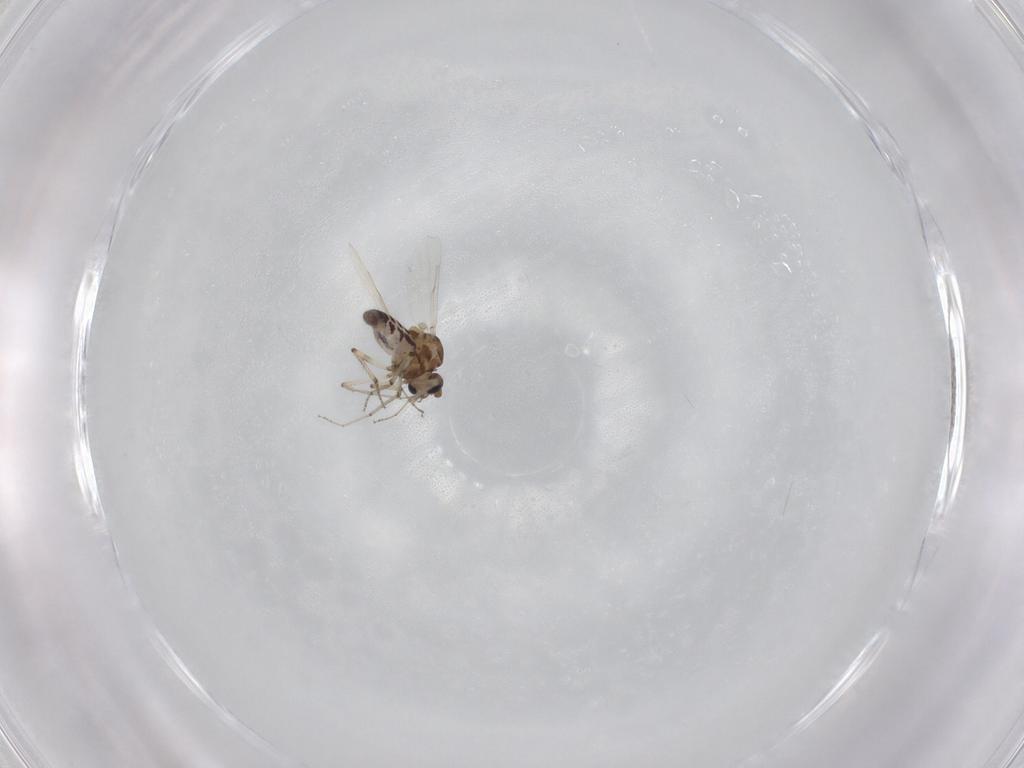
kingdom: Animalia
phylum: Arthropoda
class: Insecta
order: Diptera
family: Ceratopogonidae
